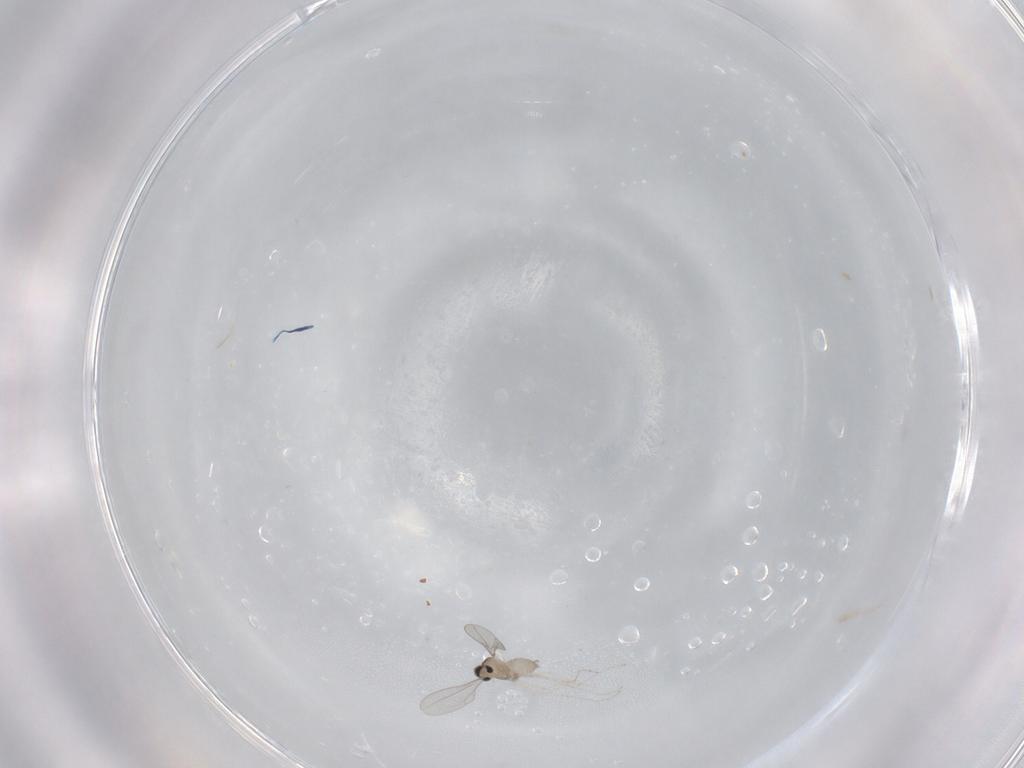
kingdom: Animalia
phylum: Arthropoda
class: Insecta
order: Diptera
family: Cecidomyiidae
